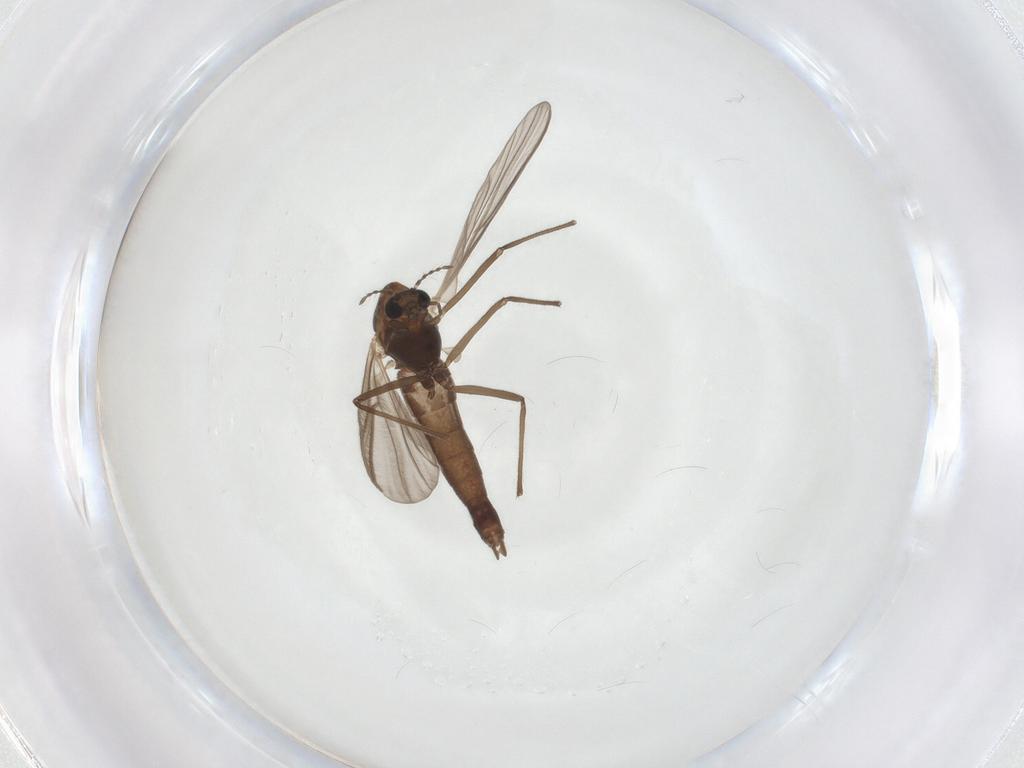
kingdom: Animalia
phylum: Arthropoda
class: Insecta
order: Diptera
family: Chironomidae
